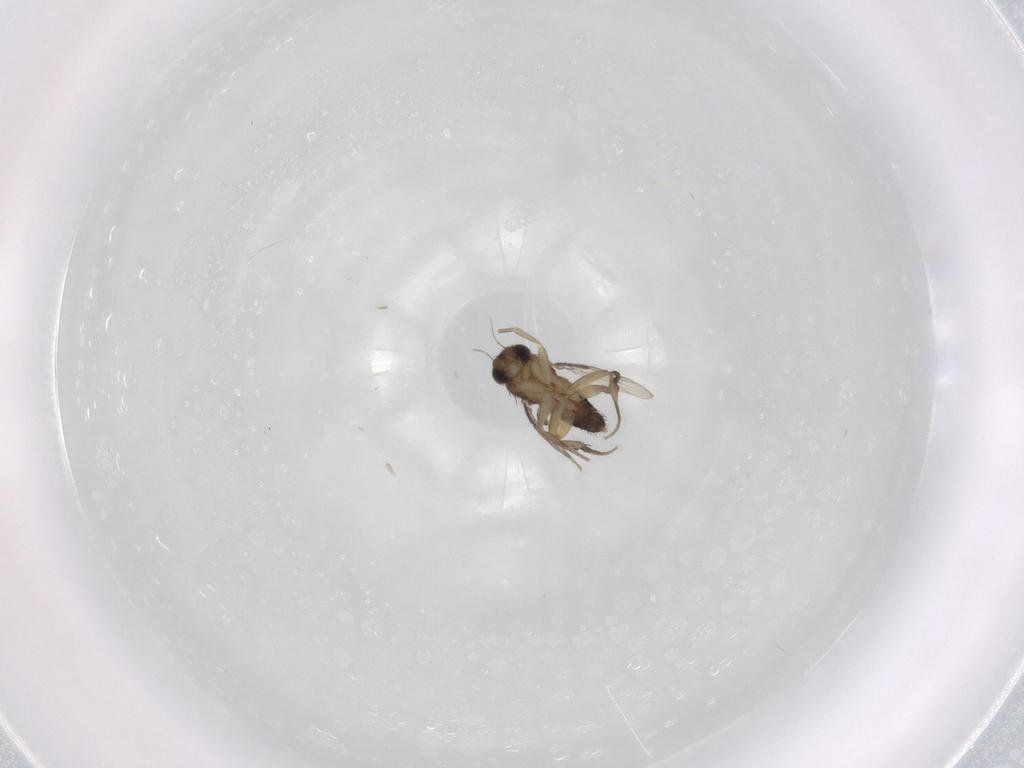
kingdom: Animalia
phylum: Arthropoda
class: Insecta
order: Diptera
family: Phoridae
